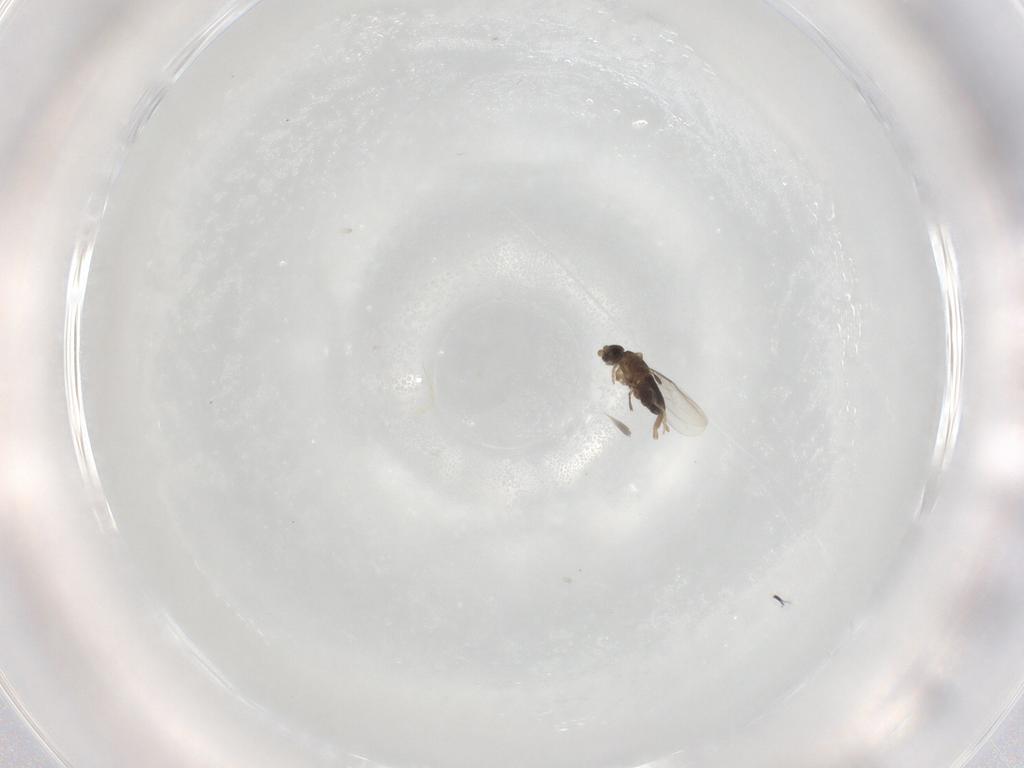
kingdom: Animalia
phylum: Arthropoda
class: Insecta
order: Diptera
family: Phoridae
